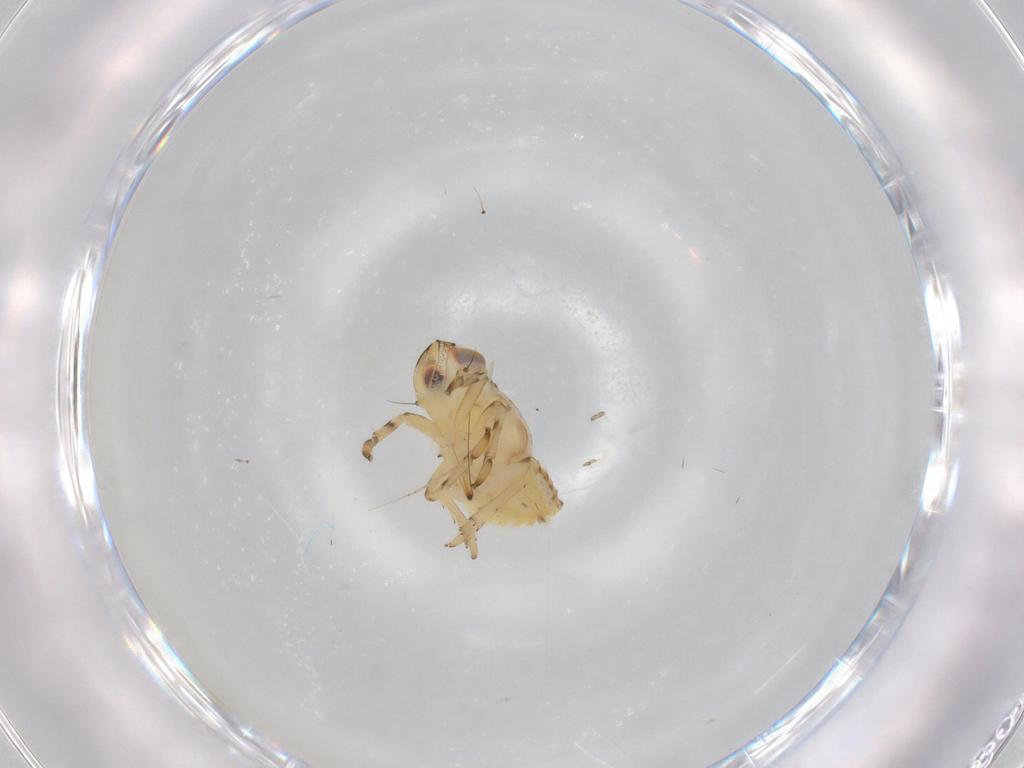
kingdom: Animalia
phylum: Arthropoda
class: Insecta
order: Hemiptera
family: Issidae
